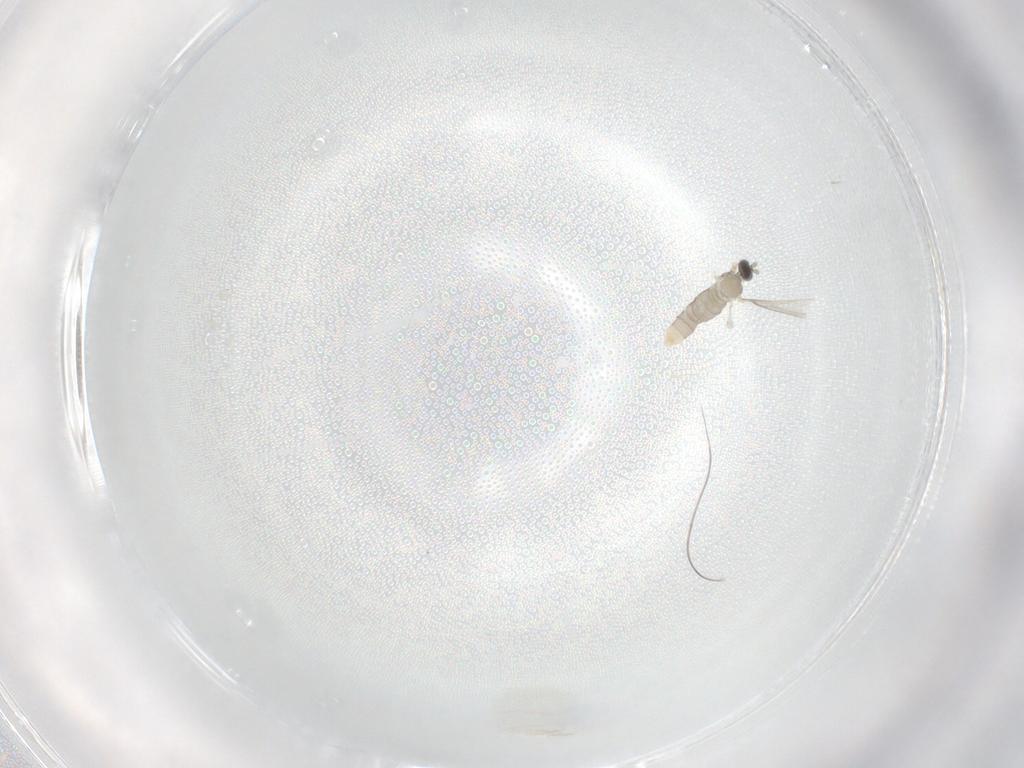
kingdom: Animalia
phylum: Arthropoda
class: Insecta
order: Diptera
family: Cecidomyiidae
